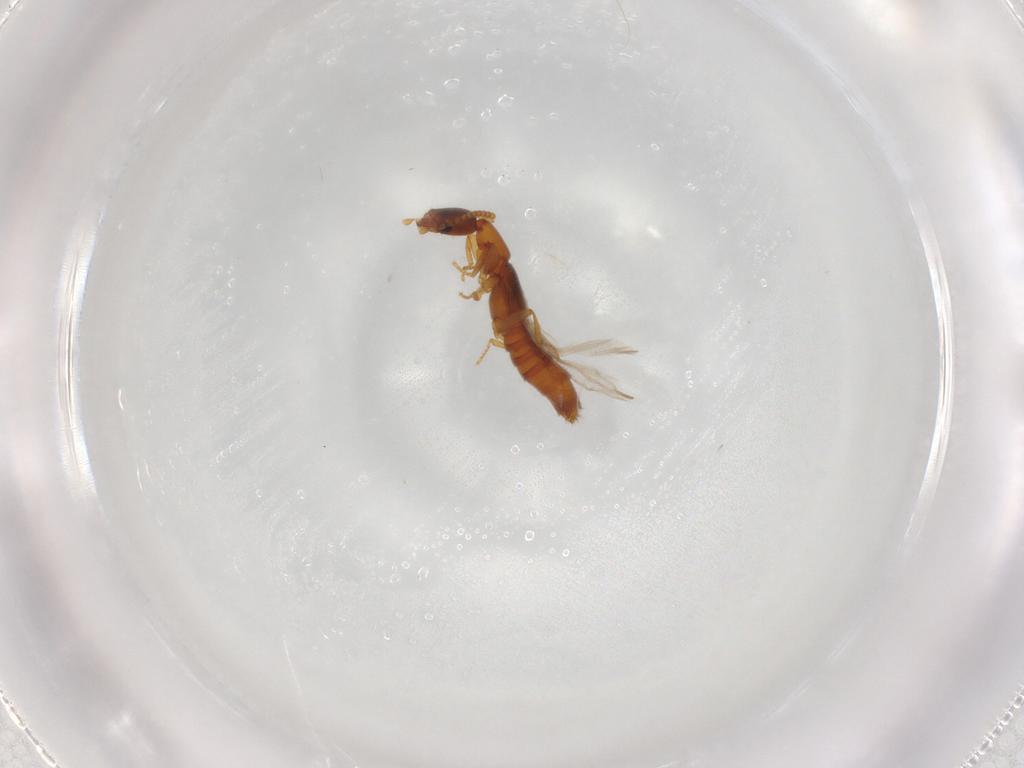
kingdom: Animalia
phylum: Arthropoda
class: Insecta
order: Coleoptera
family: Staphylinidae
